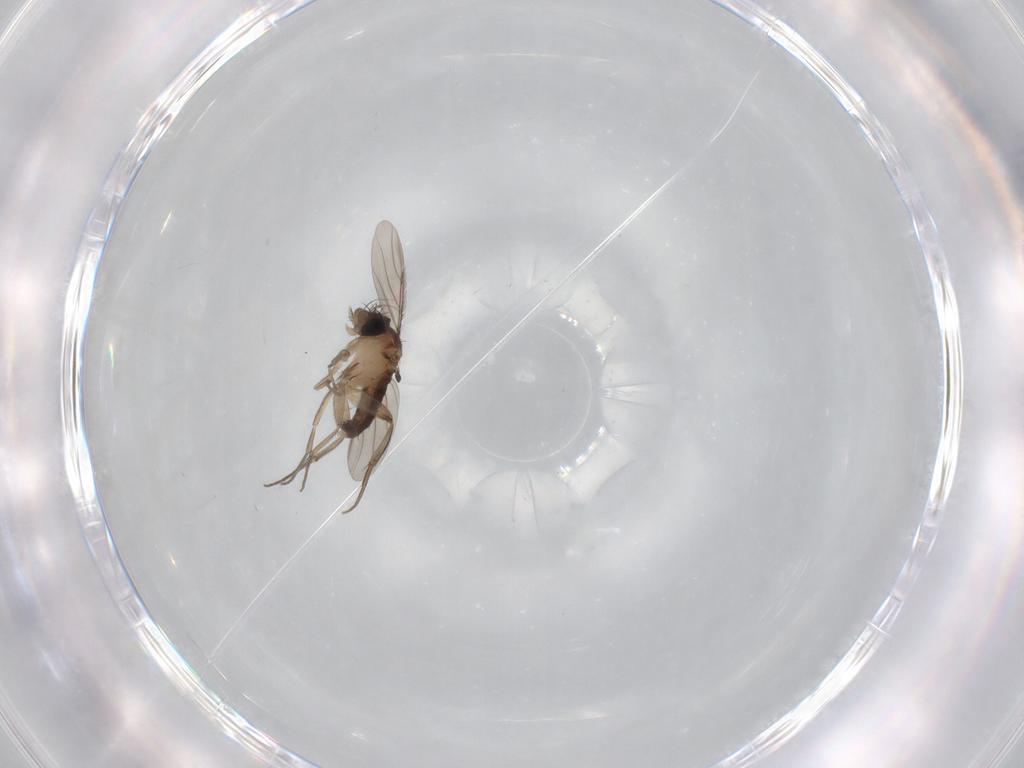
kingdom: Animalia
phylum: Arthropoda
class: Insecta
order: Diptera
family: Phoridae
